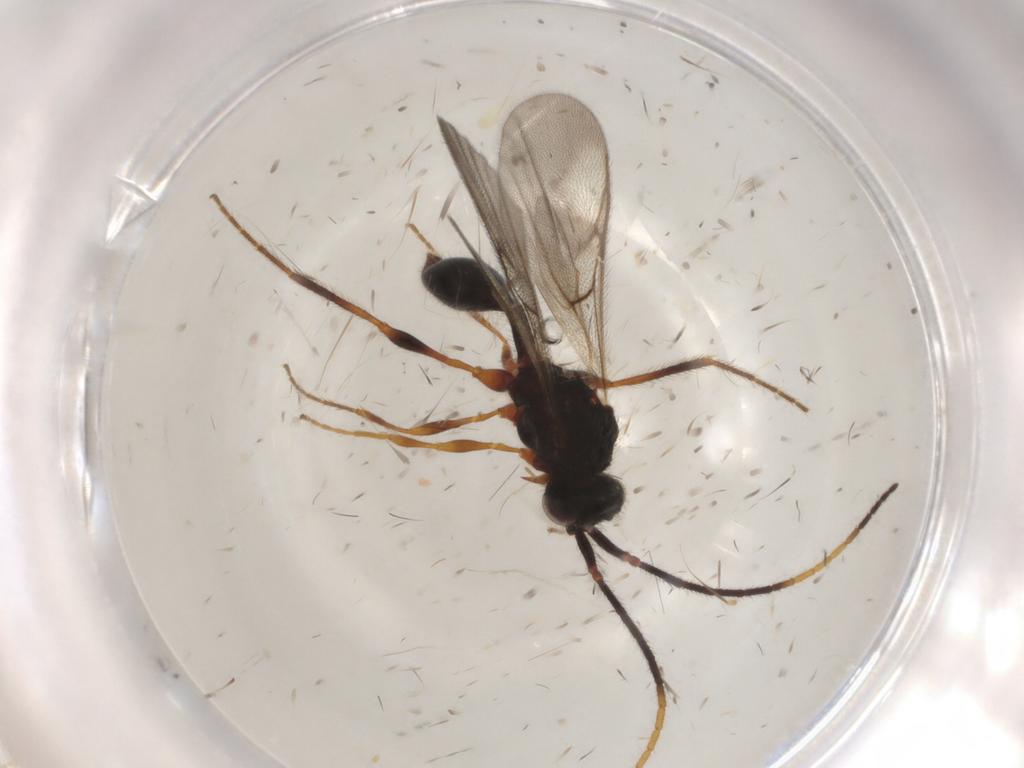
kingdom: Animalia
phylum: Arthropoda
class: Insecta
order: Hymenoptera
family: Diapriidae
